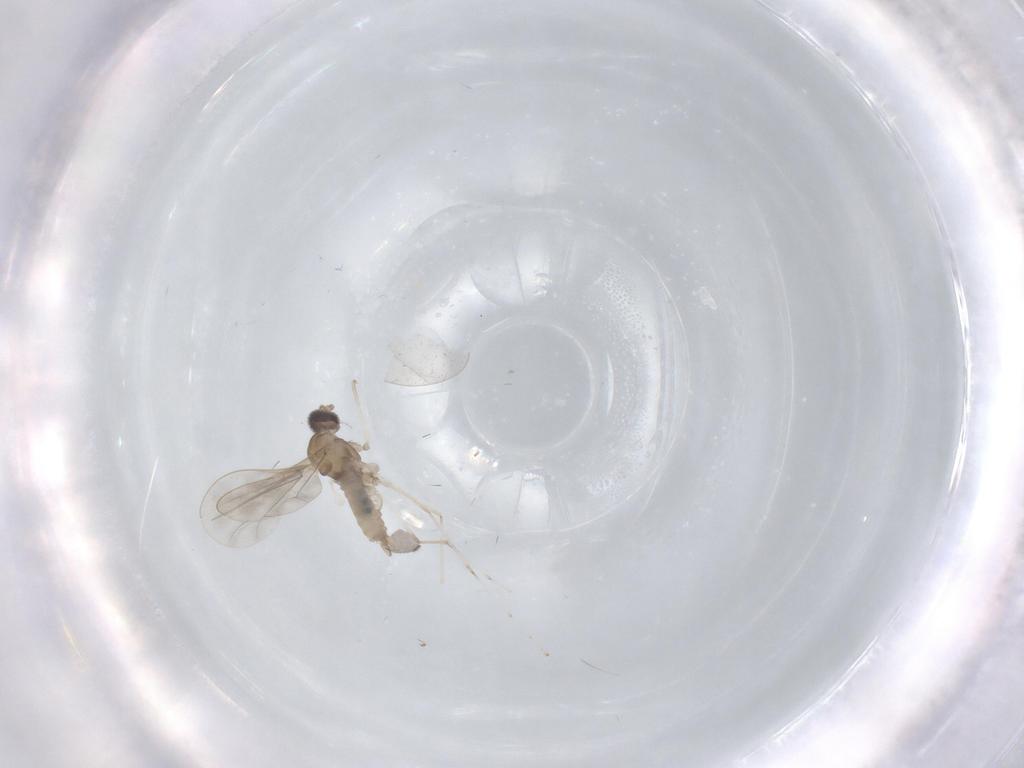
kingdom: Animalia
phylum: Arthropoda
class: Insecta
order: Diptera
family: Cecidomyiidae
